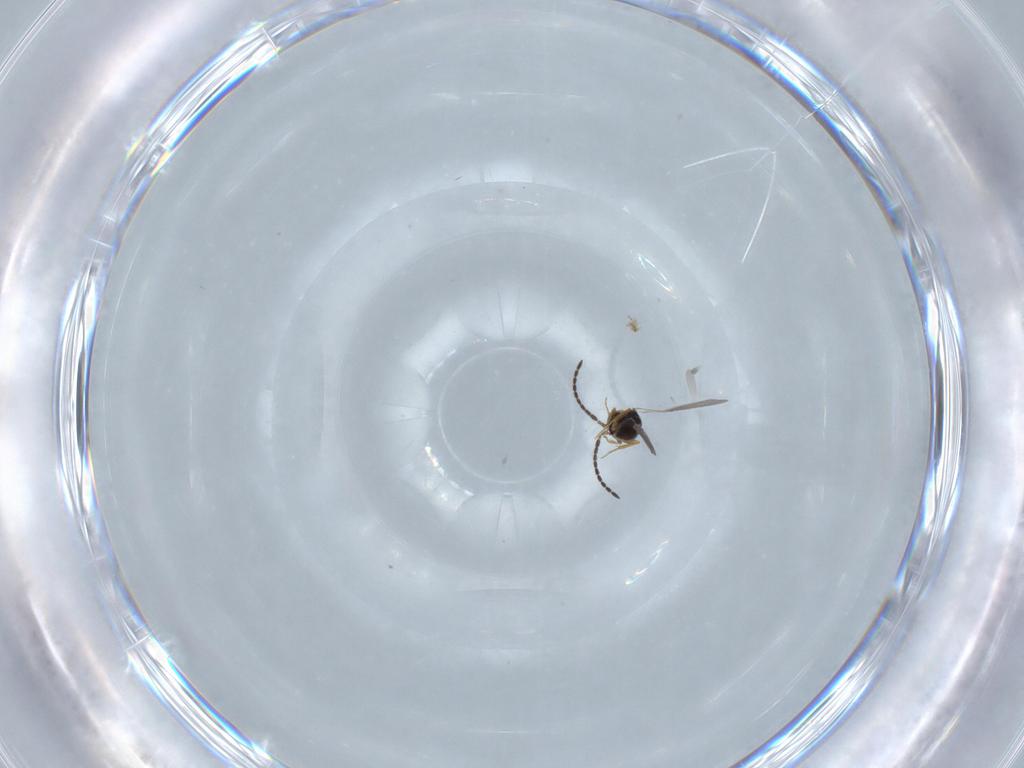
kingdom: Animalia
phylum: Arthropoda
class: Insecta
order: Hymenoptera
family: Ceraphronidae
